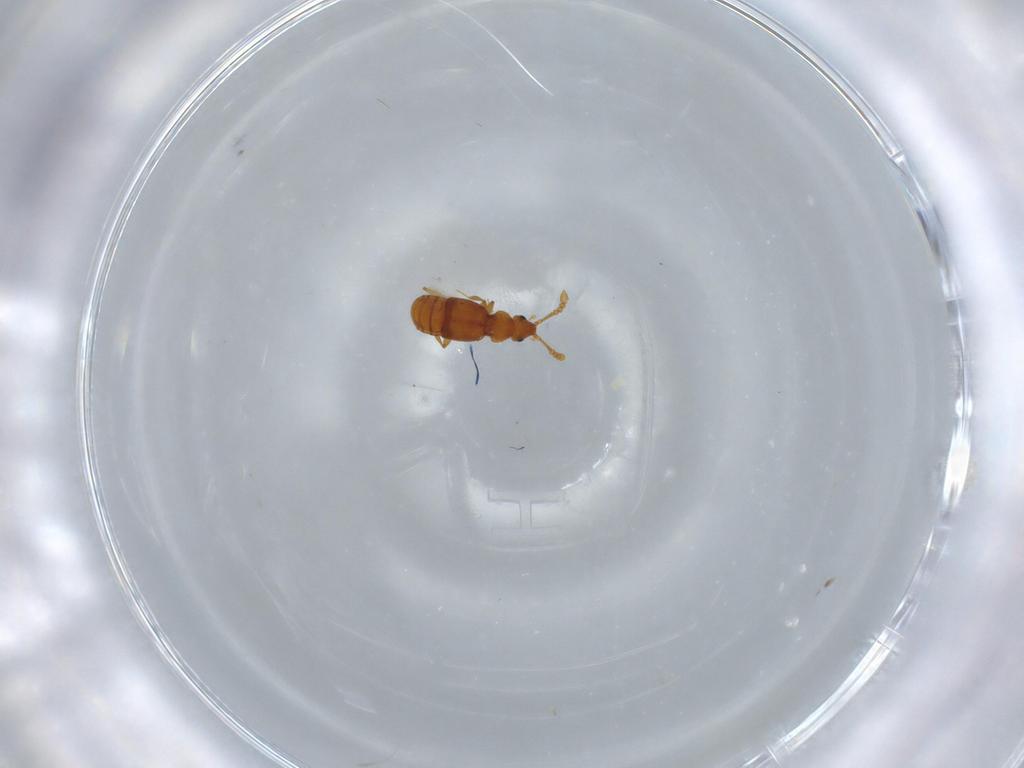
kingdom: Animalia
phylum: Arthropoda
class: Insecta
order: Coleoptera
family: Staphylinidae
